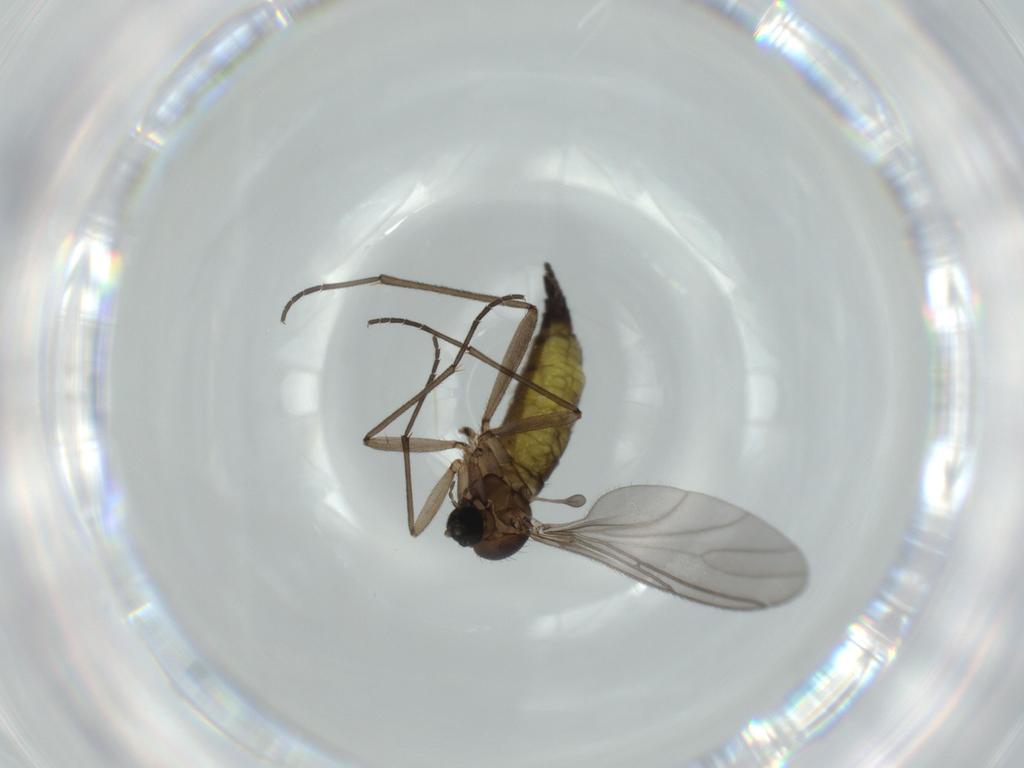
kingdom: Animalia
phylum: Arthropoda
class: Insecta
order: Diptera
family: Sciaridae
